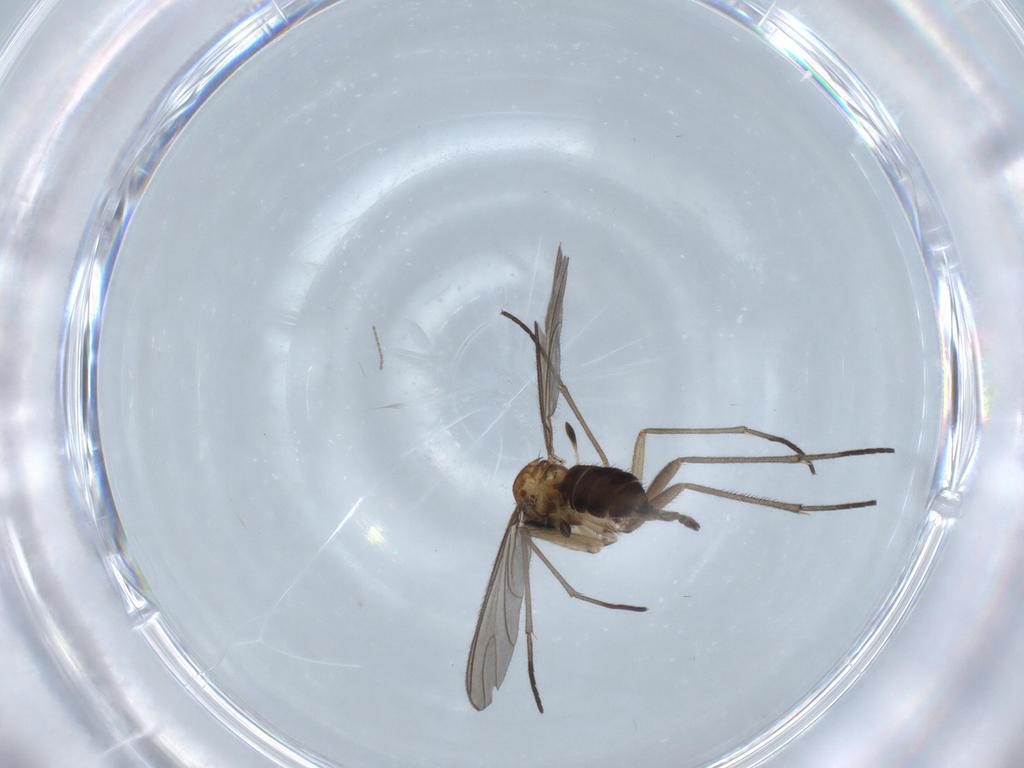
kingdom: Animalia
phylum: Arthropoda
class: Insecta
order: Diptera
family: Sciaridae
